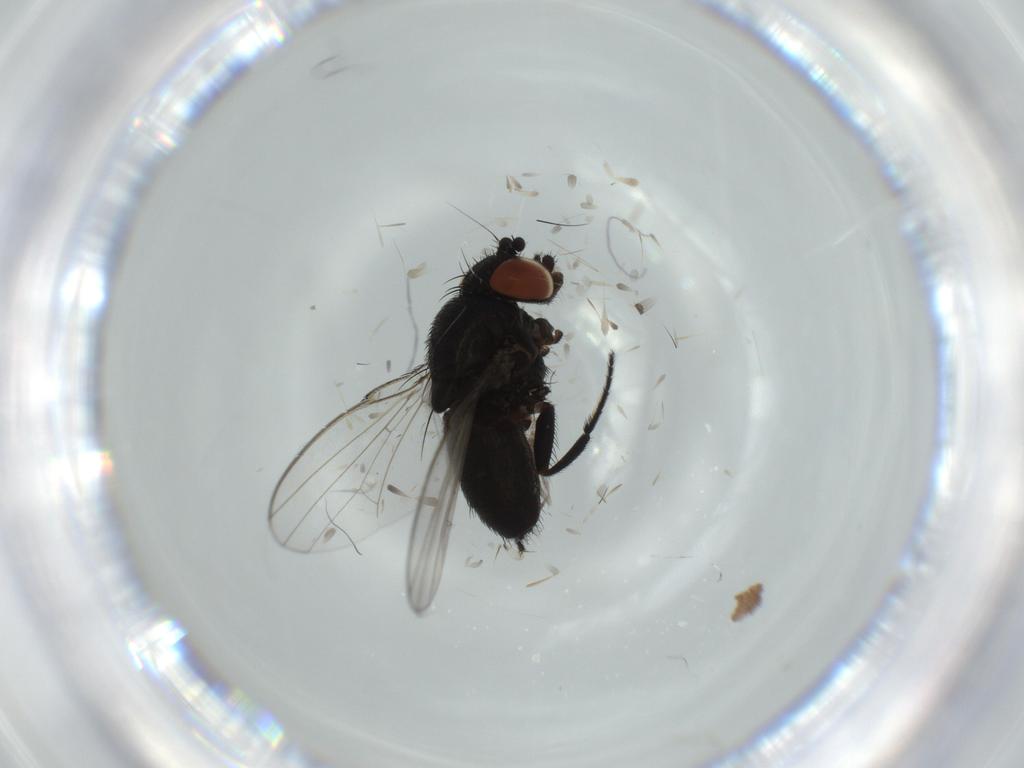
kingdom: Animalia
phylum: Arthropoda
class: Insecta
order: Diptera
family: Milichiidae
